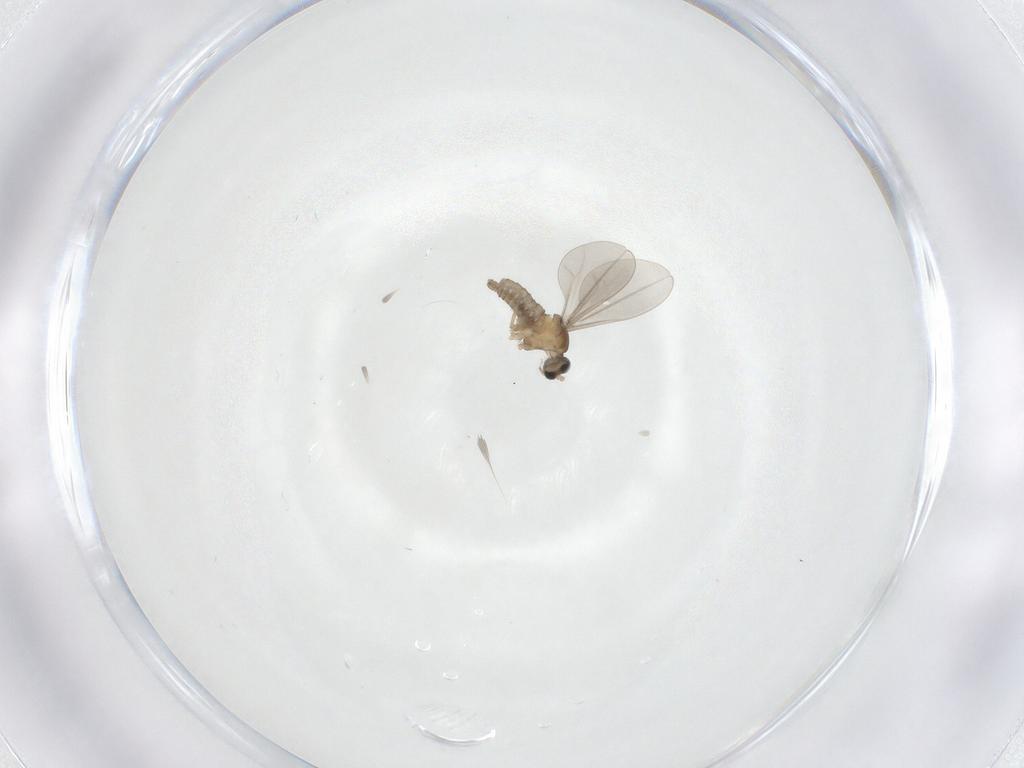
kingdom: Animalia
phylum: Arthropoda
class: Insecta
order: Diptera
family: Cecidomyiidae
